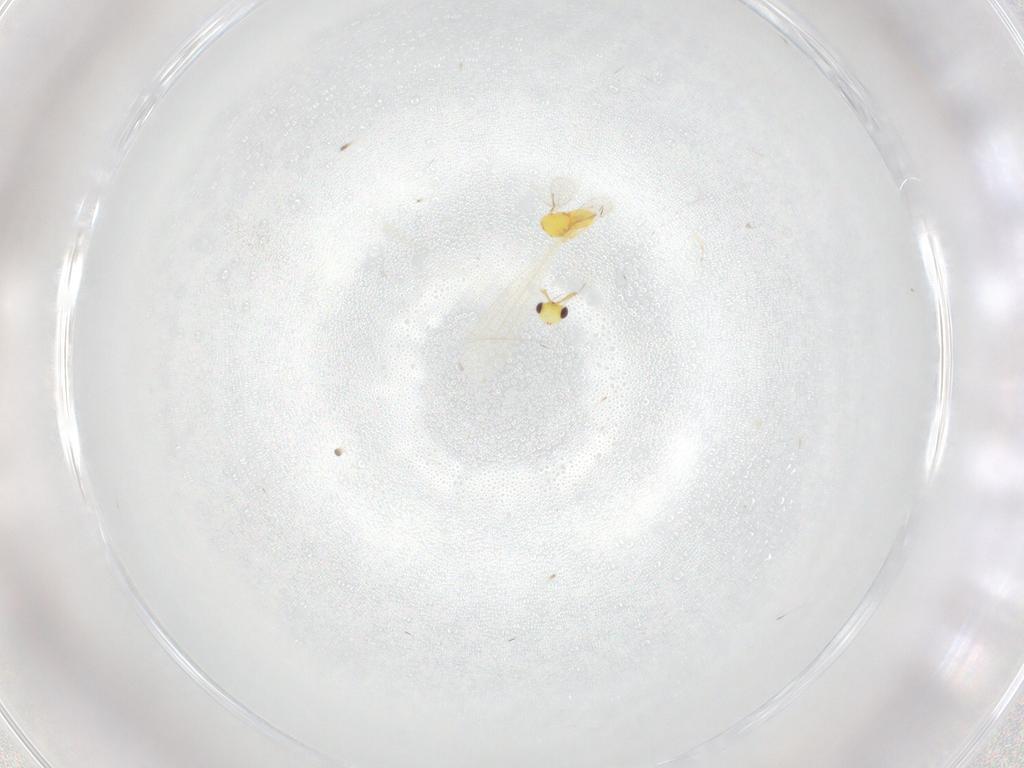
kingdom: Animalia
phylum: Arthropoda
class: Insecta
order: Hymenoptera
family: Aphelinidae
